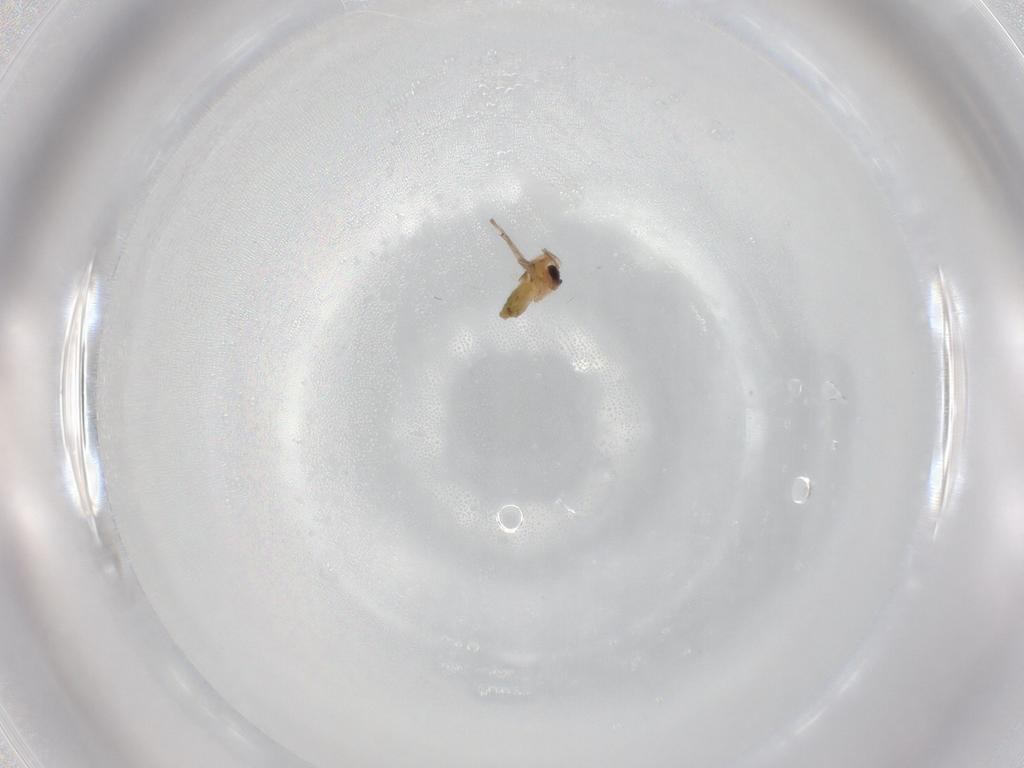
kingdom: Animalia
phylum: Arthropoda
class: Insecta
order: Diptera
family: Chironomidae
